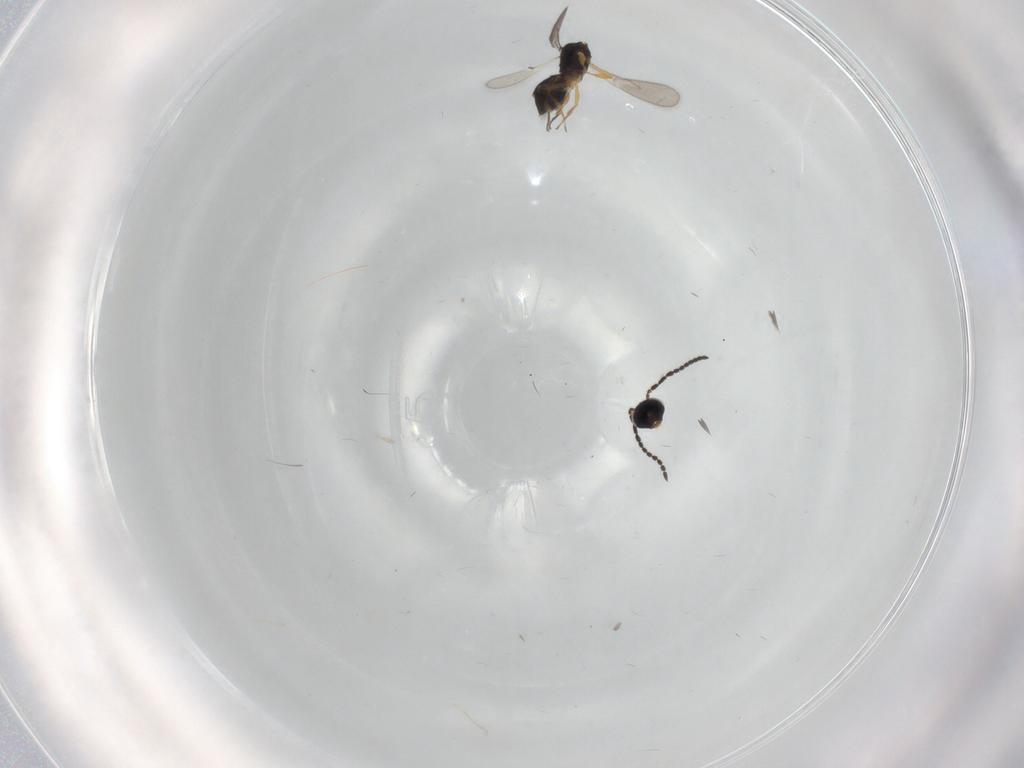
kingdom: Animalia
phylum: Arthropoda
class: Insecta
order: Hymenoptera
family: Scelionidae
